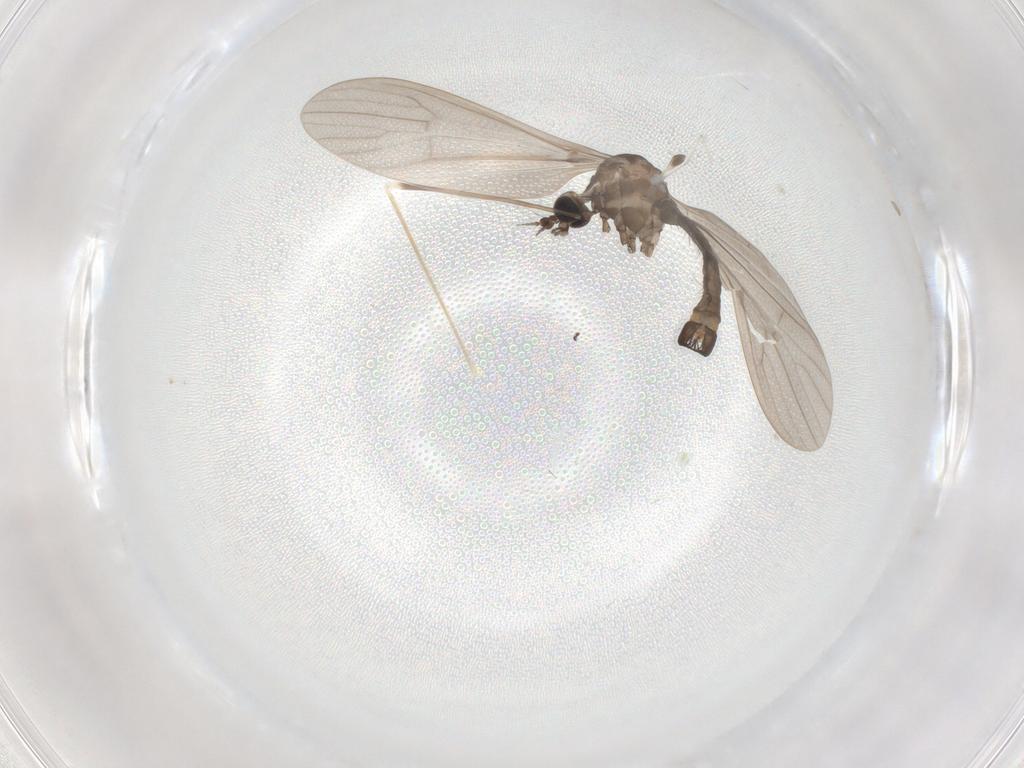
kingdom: Animalia
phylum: Arthropoda
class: Insecta
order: Diptera
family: Limoniidae
